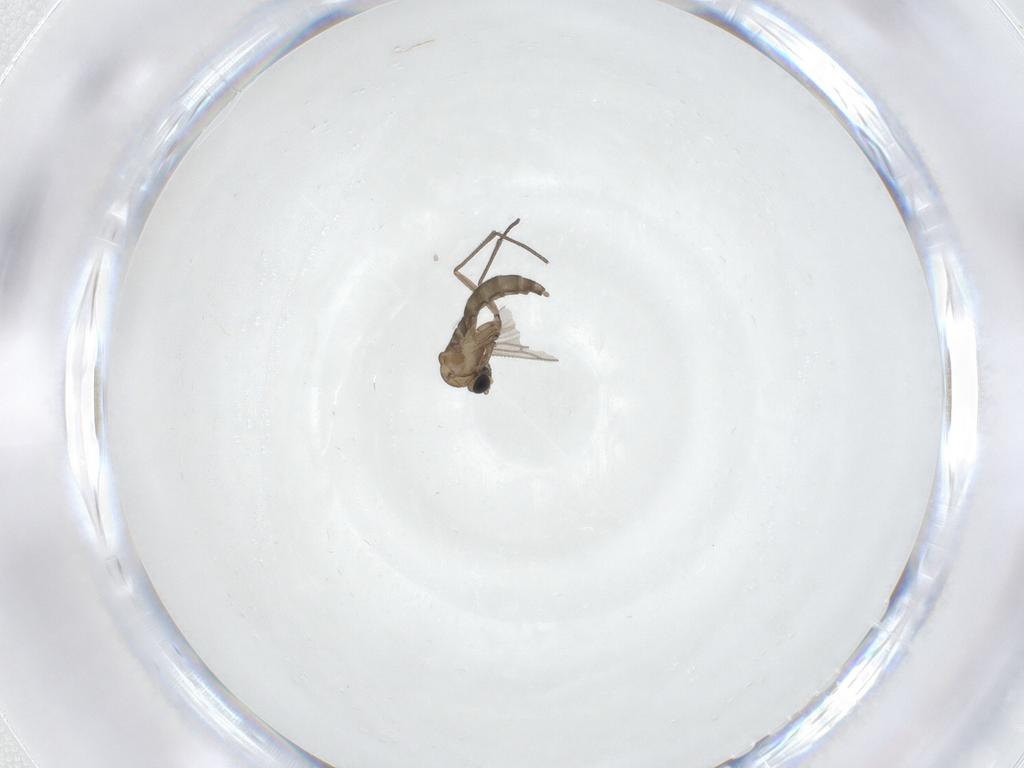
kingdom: Animalia
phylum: Arthropoda
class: Insecta
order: Diptera
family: Sciaridae
